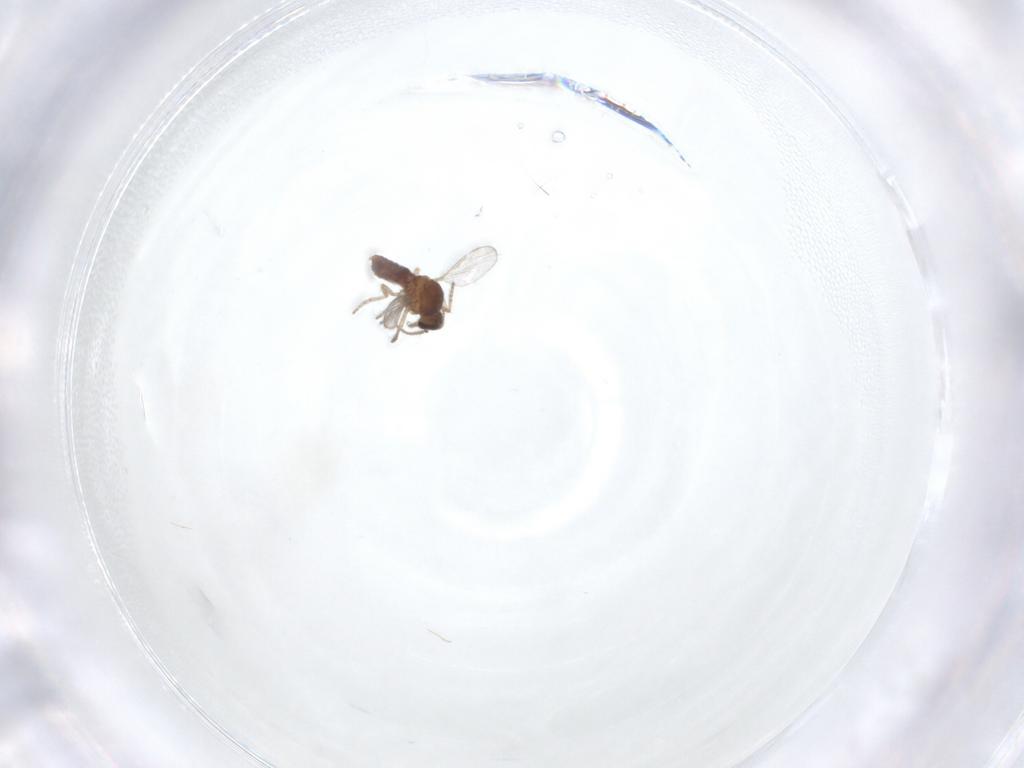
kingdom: Animalia
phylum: Arthropoda
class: Insecta
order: Diptera
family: Ceratopogonidae
